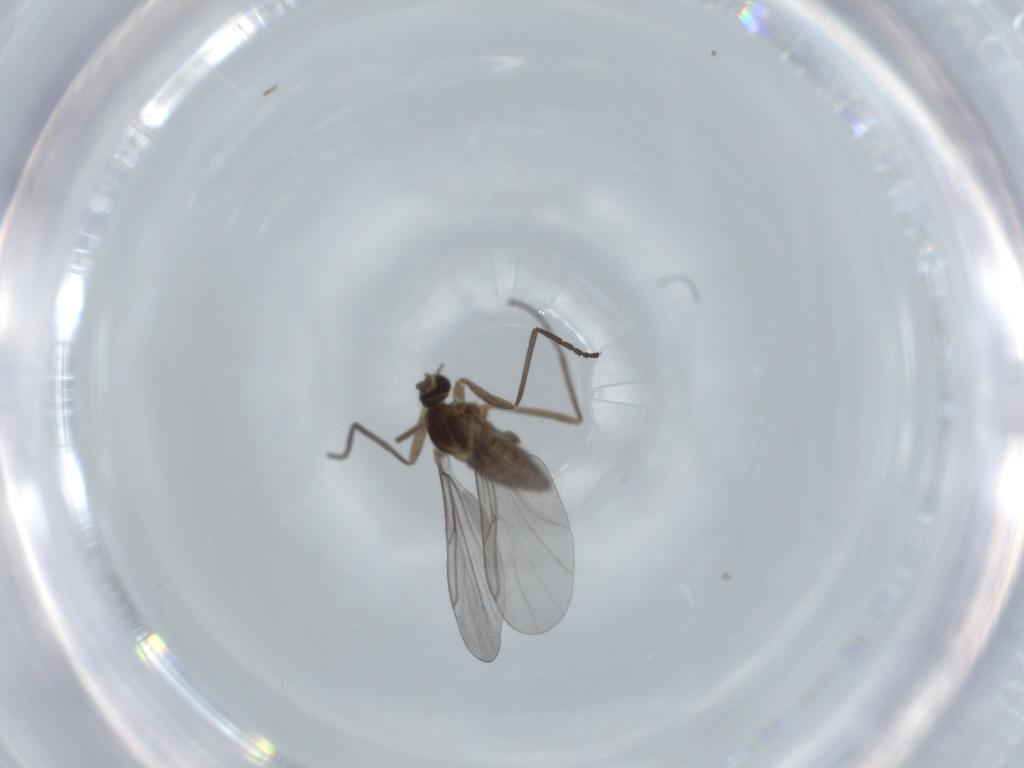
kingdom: Animalia
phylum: Arthropoda
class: Insecta
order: Diptera
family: Cecidomyiidae
